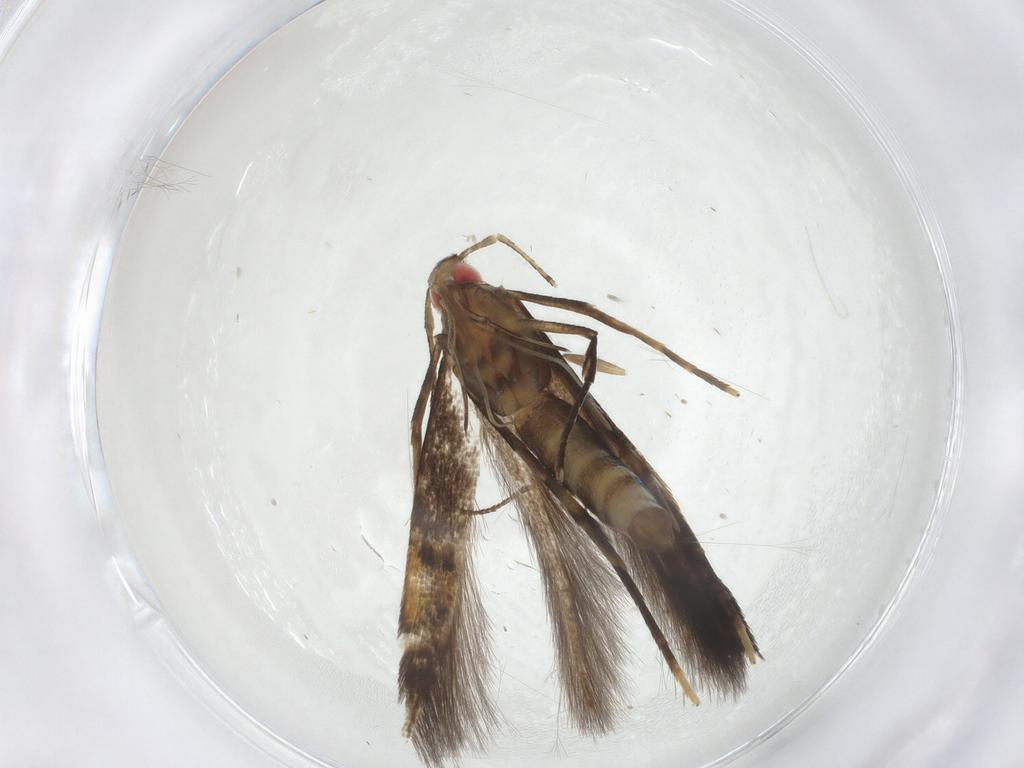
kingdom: Animalia
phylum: Arthropoda
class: Insecta
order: Lepidoptera
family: Cosmopterigidae
